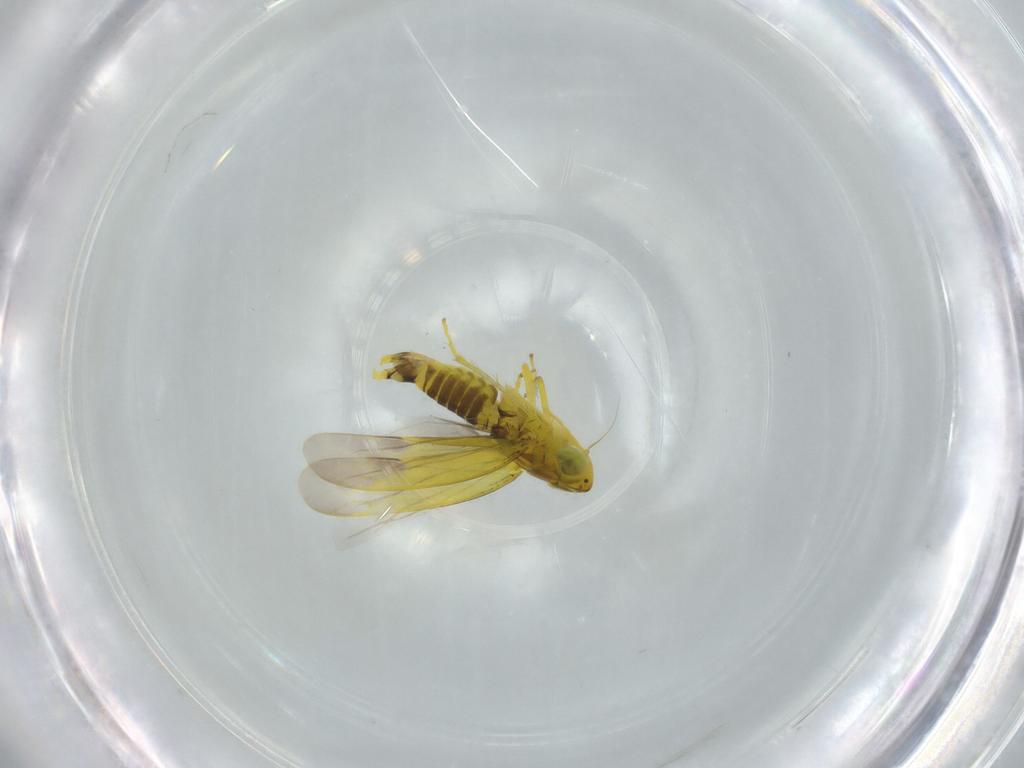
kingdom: Animalia
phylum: Arthropoda
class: Insecta
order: Hemiptera
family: Cicadellidae
